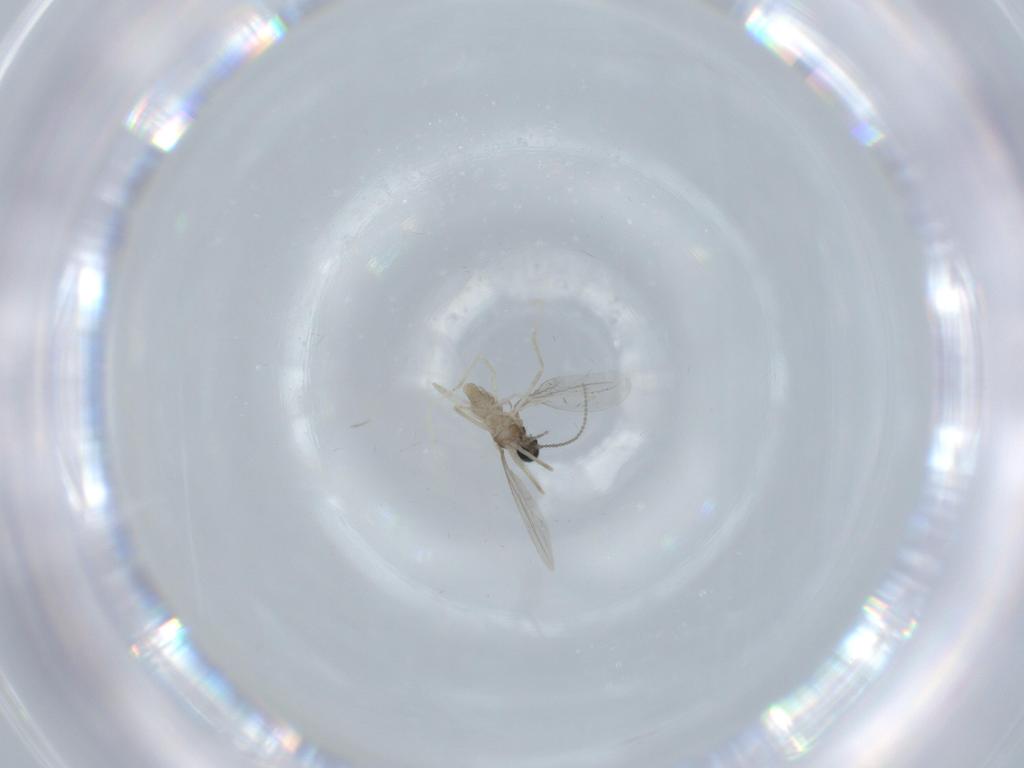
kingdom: Animalia
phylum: Arthropoda
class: Insecta
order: Diptera
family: Cecidomyiidae
